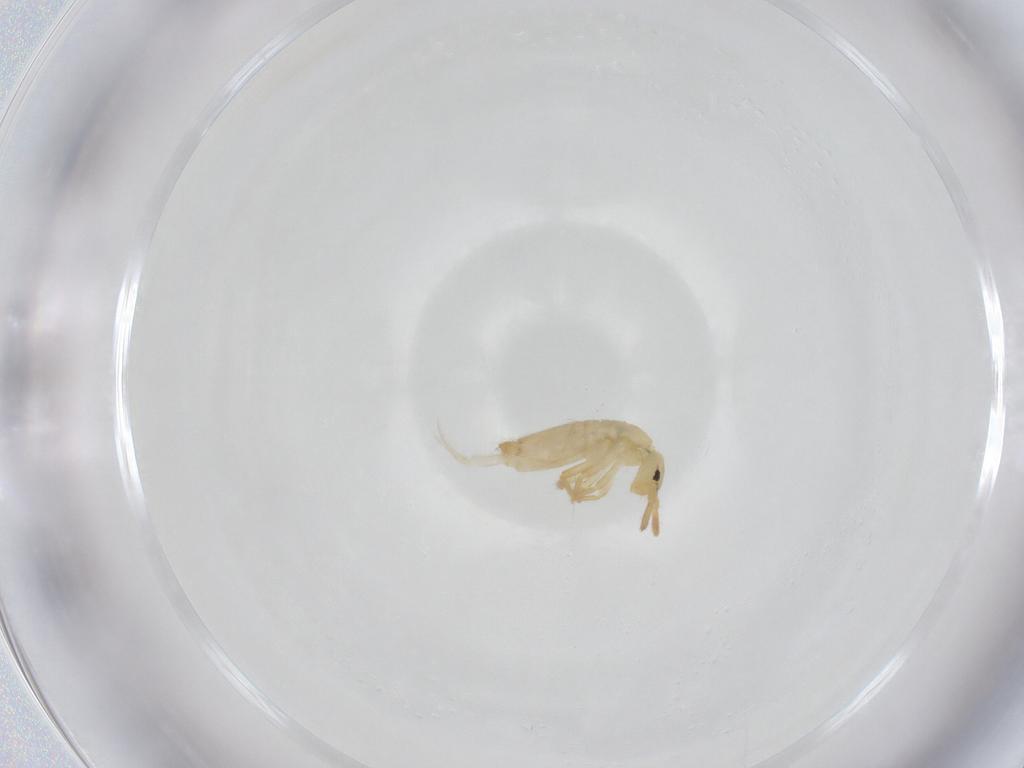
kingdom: Animalia
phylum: Arthropoda
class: Collembola
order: Entomobryomorpha
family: Entomobryidae
